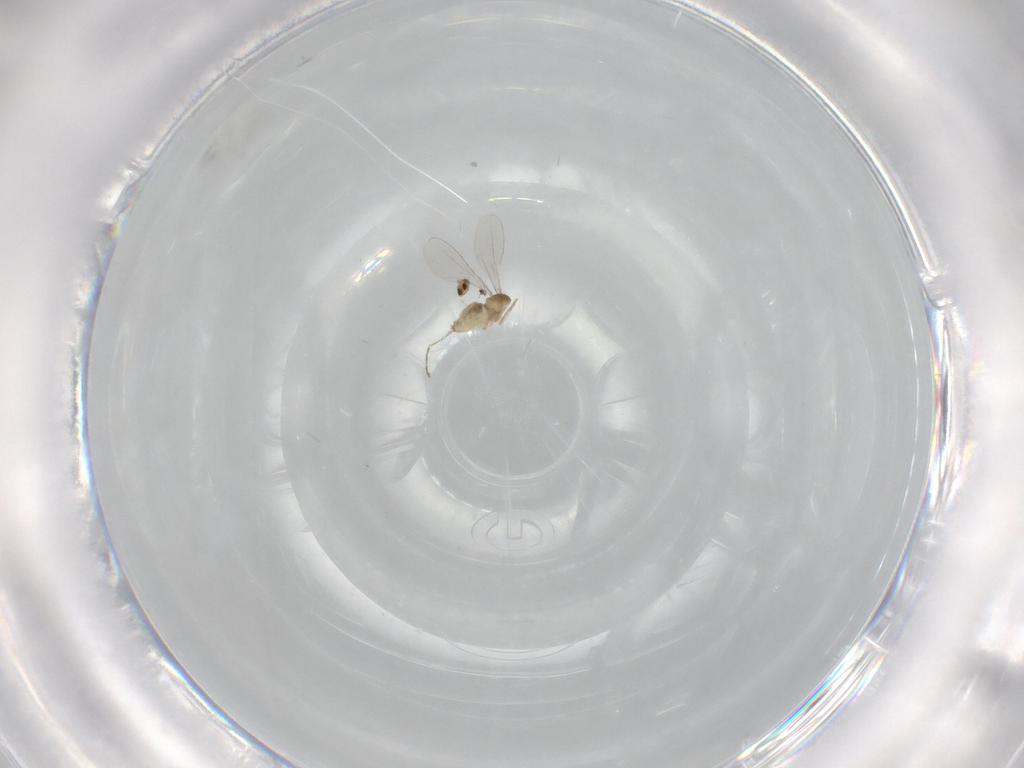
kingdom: Animalia
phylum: Arthropoda
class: Insecta
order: Diptera
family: Cecidomyiidae
